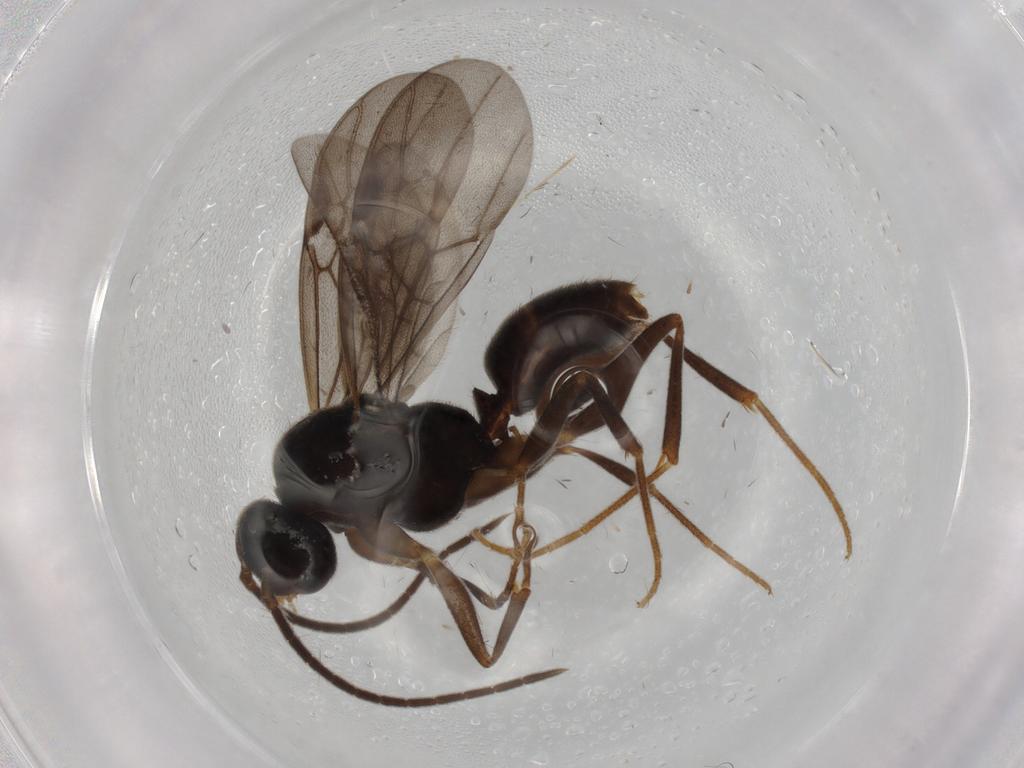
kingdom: Animalia
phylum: Arthropoda
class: Insecta
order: Hymenoptera
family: Formicidae
